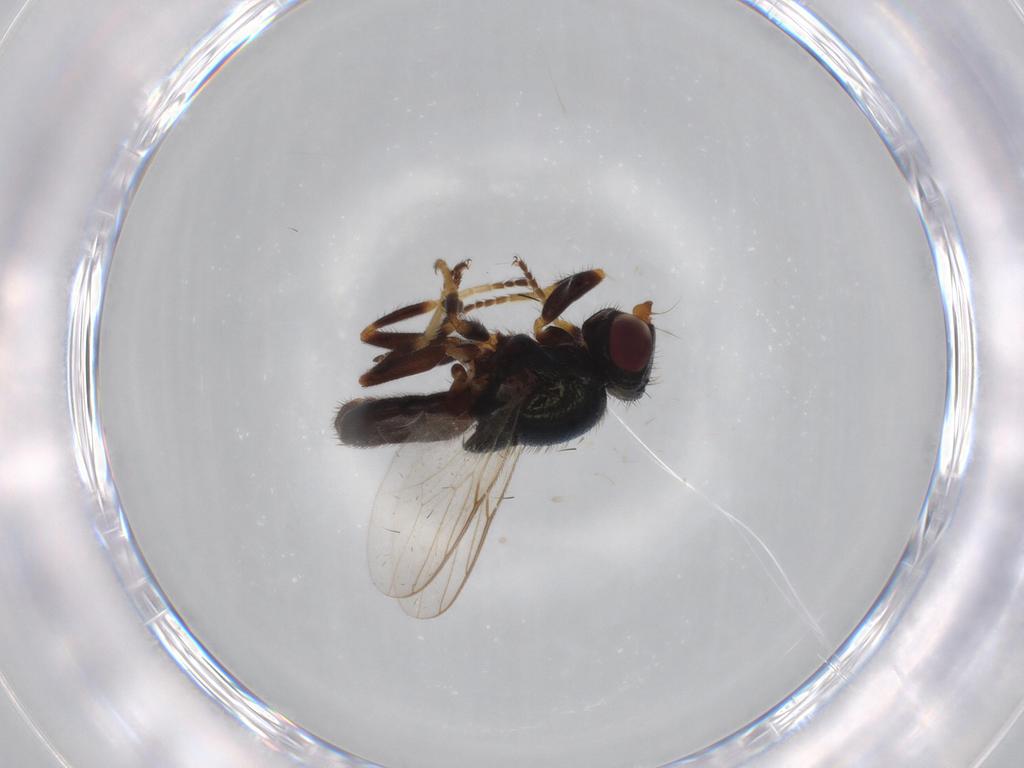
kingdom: Animalia
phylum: Arthropoda
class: Insecta
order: Diptera
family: Chloropidae
